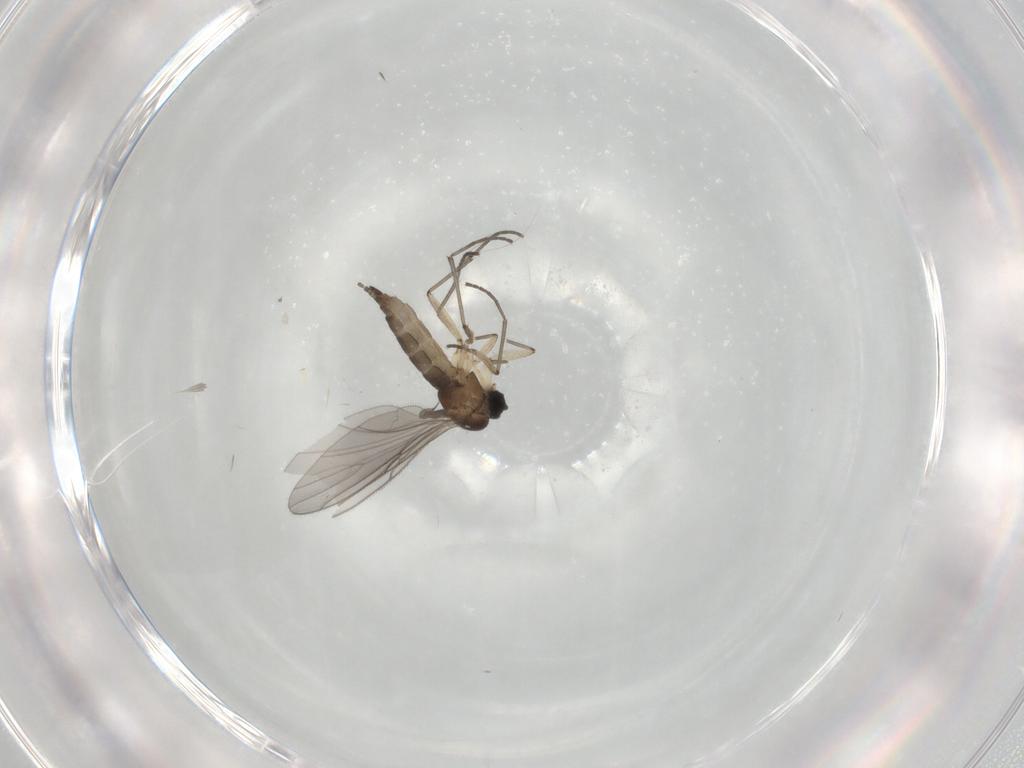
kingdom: Animalia
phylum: Arthropoda
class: Insecta
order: Diptera
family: Sciaridae
